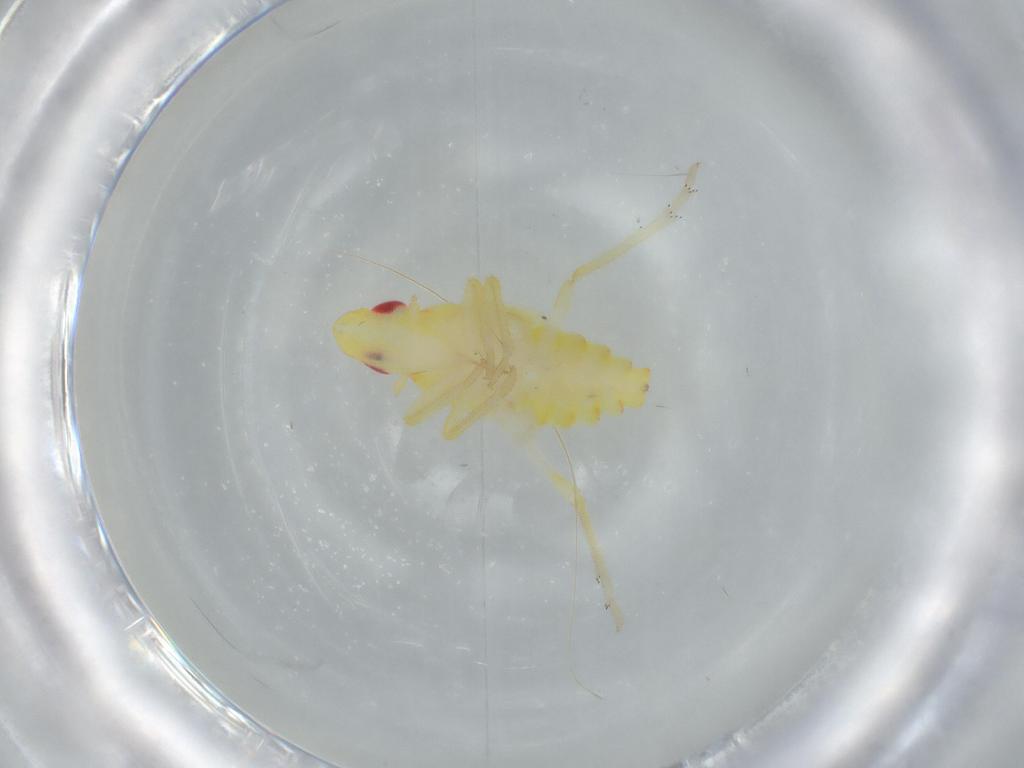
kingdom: Animalia
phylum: Arthropoda
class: Insecta
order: Hemiptera
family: Tropiduchidae
